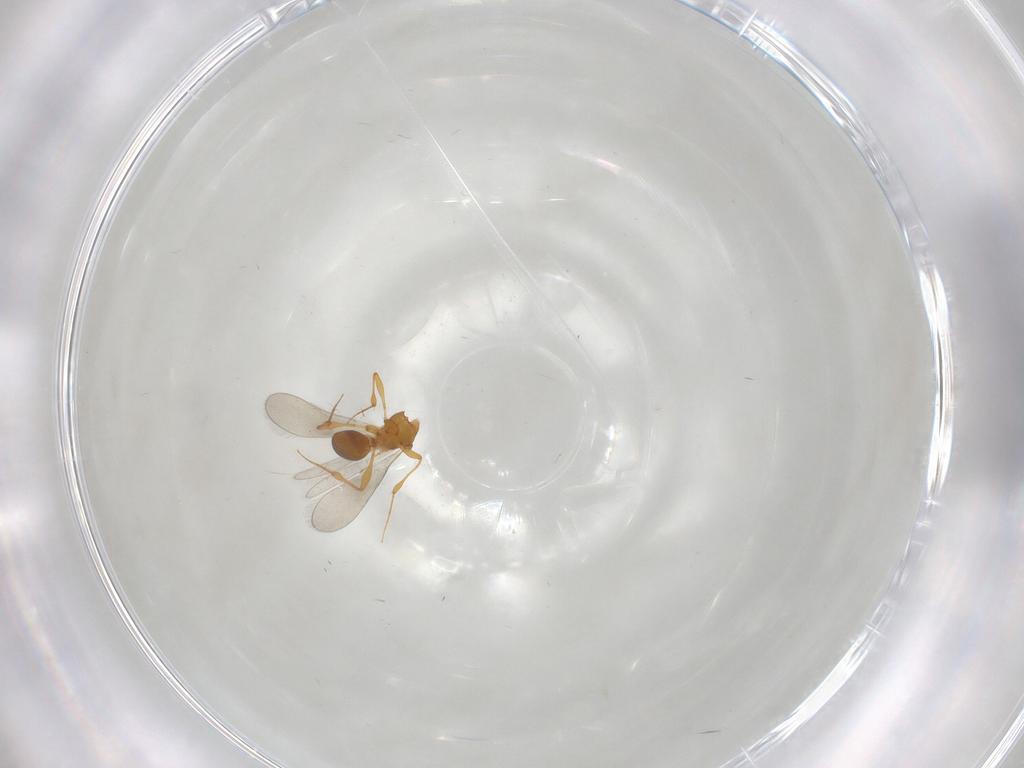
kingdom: Animalia
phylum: Arthropoda
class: Insecta
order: Hymenoptera
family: Platygastridae
